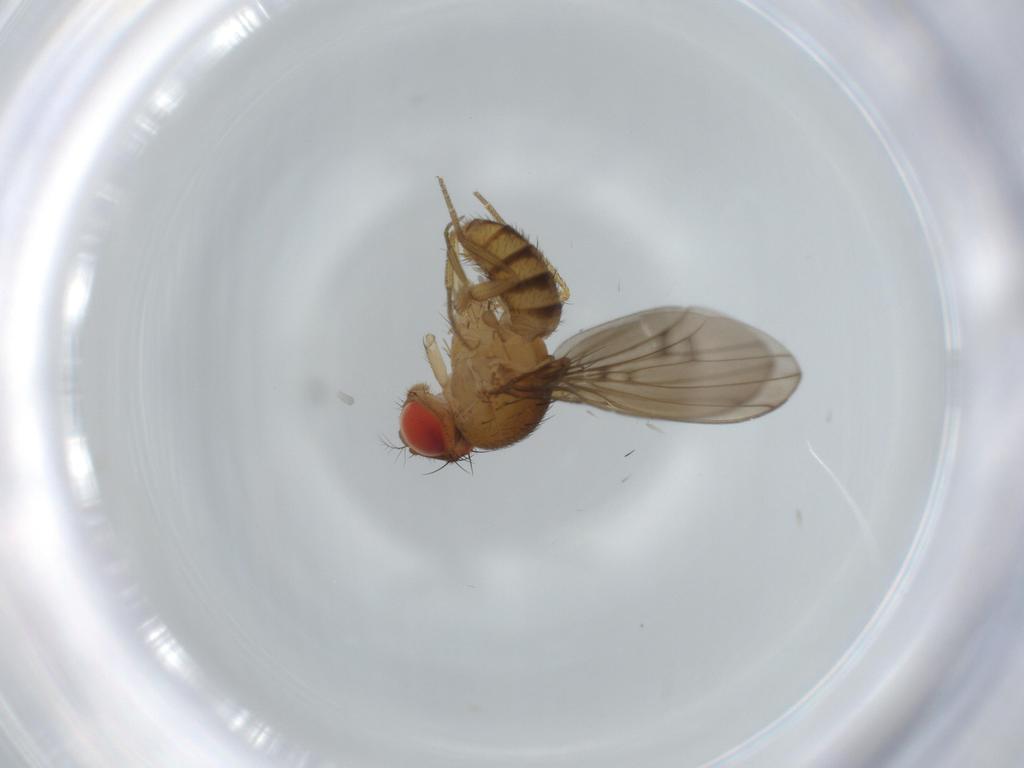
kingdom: Animalia
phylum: Arthropoda
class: Insecta
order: Diptera
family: Drosophilidae
